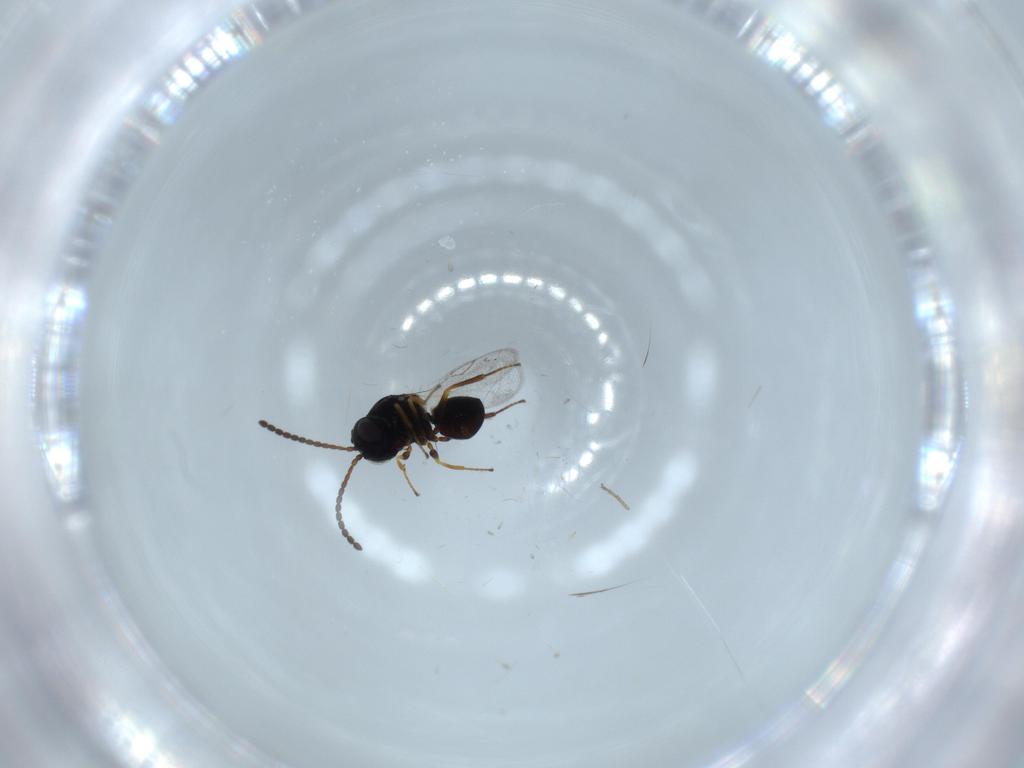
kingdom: Animalia
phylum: Arthropoda
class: Insecta
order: Hymenoptera
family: Figitidae
